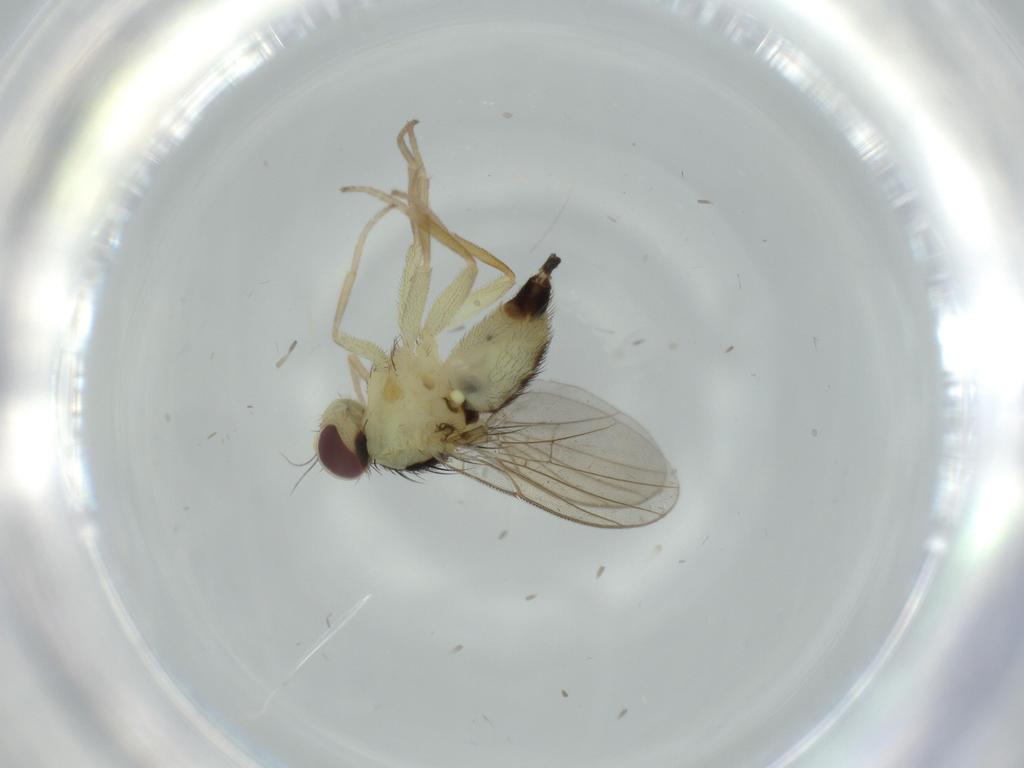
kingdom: Animalia
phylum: Arthropoda
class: Insecta
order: Diptera
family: Agromyzidae
